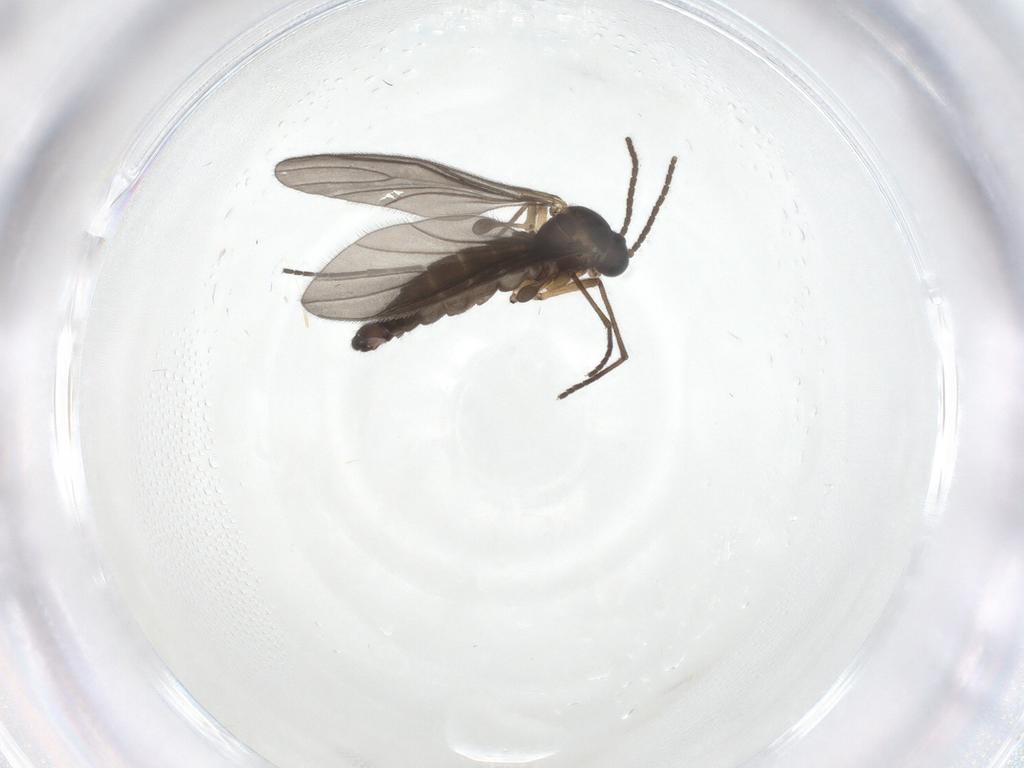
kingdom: Animalia
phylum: Arthropoda
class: Insecta
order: Diptera
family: Sciaridae
